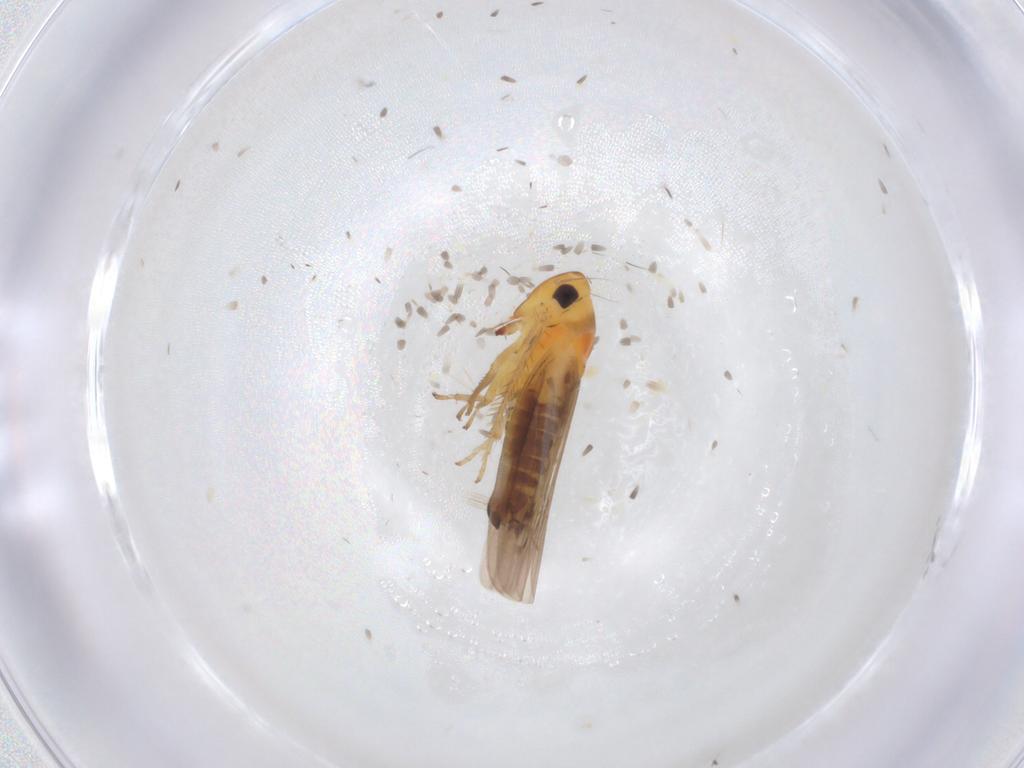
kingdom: Animalia
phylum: Arthropoda
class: Insecta
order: Hemiptera
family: Cicadellidae
